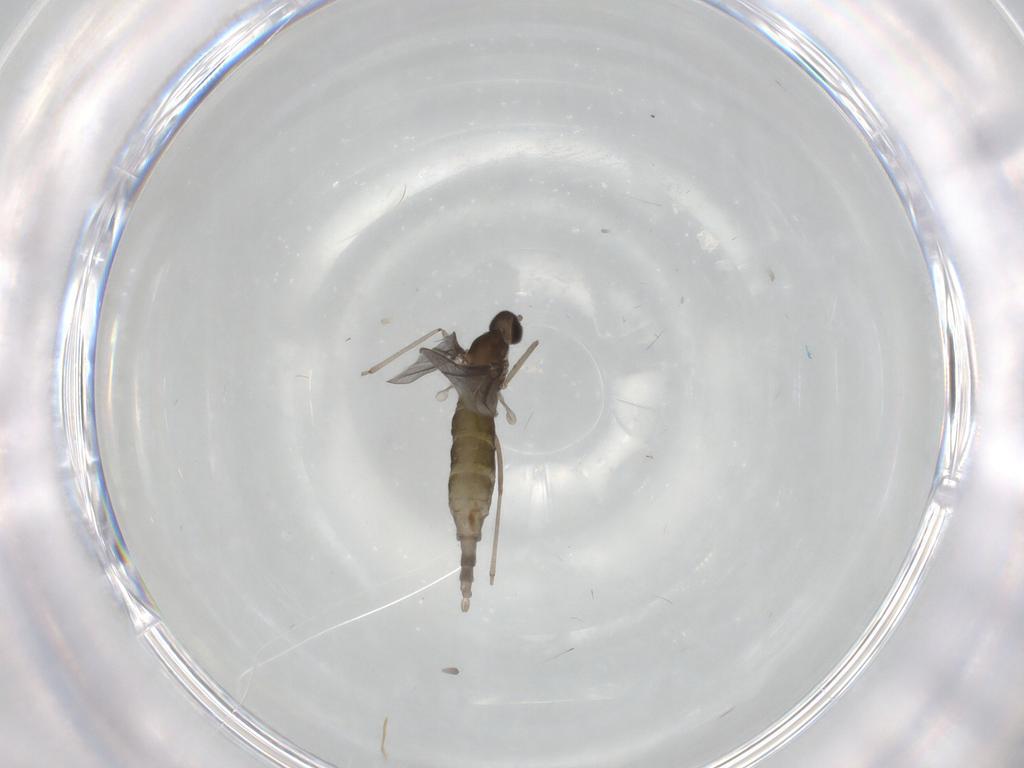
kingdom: Animalia
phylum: Arthropoda
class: Insecta
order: Diptera
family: Cecidomyiidae
